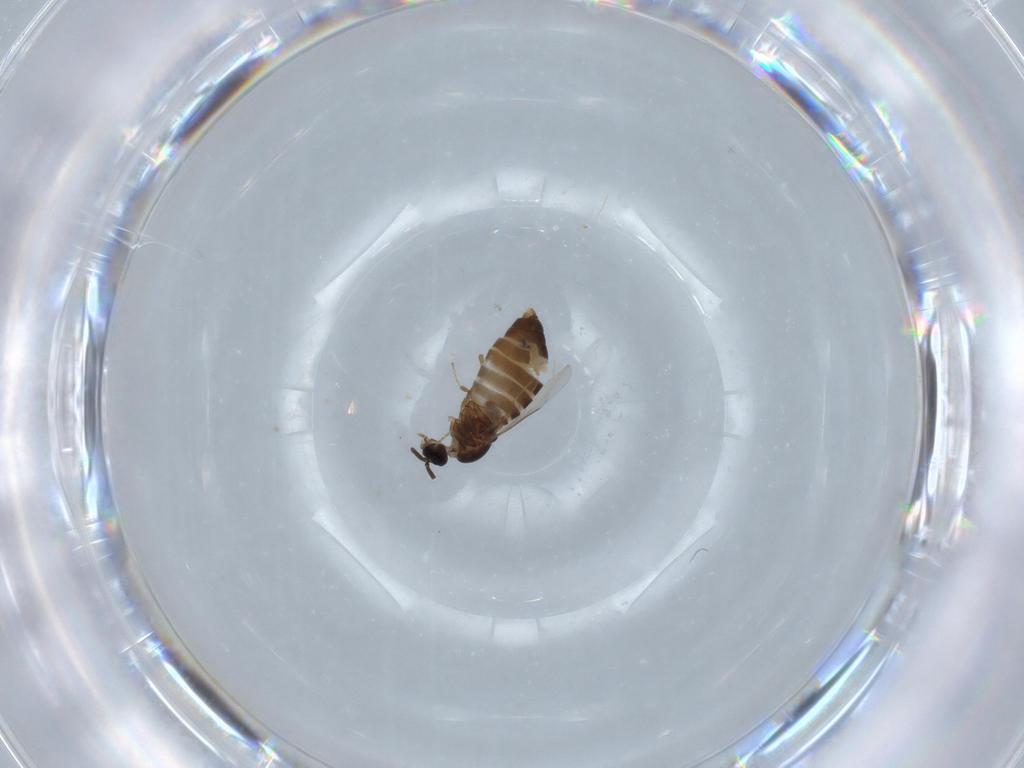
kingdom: Animalia
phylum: Arthropoda
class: Insecta
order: Diptera
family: Scatopsidae
